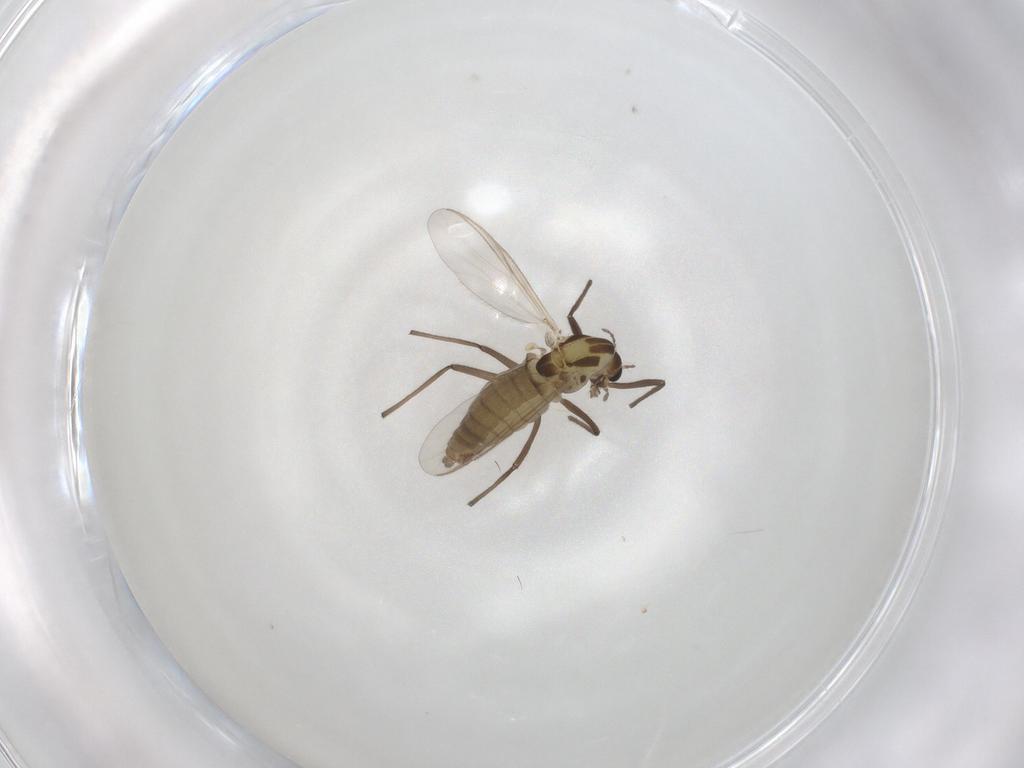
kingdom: Animalia
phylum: Arthropoda
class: Insecta
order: Diptera
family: Chironomidae
